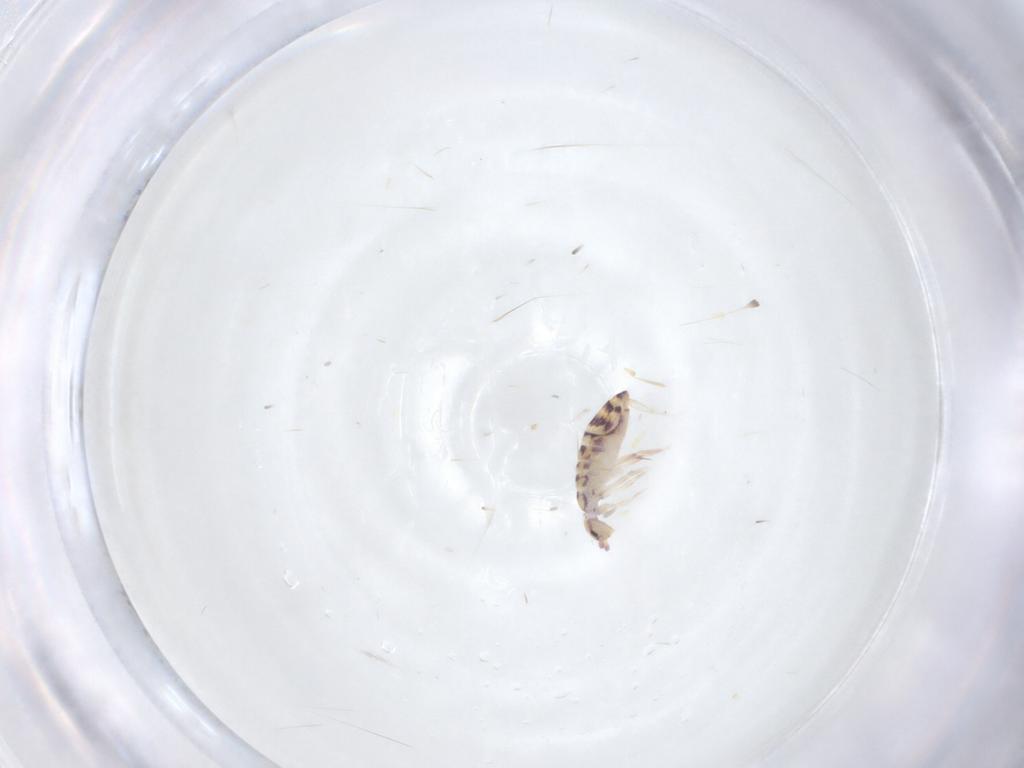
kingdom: Animalia
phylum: Arthropoda
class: Collembola
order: Entomobryomorpha
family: Entomobryidae
